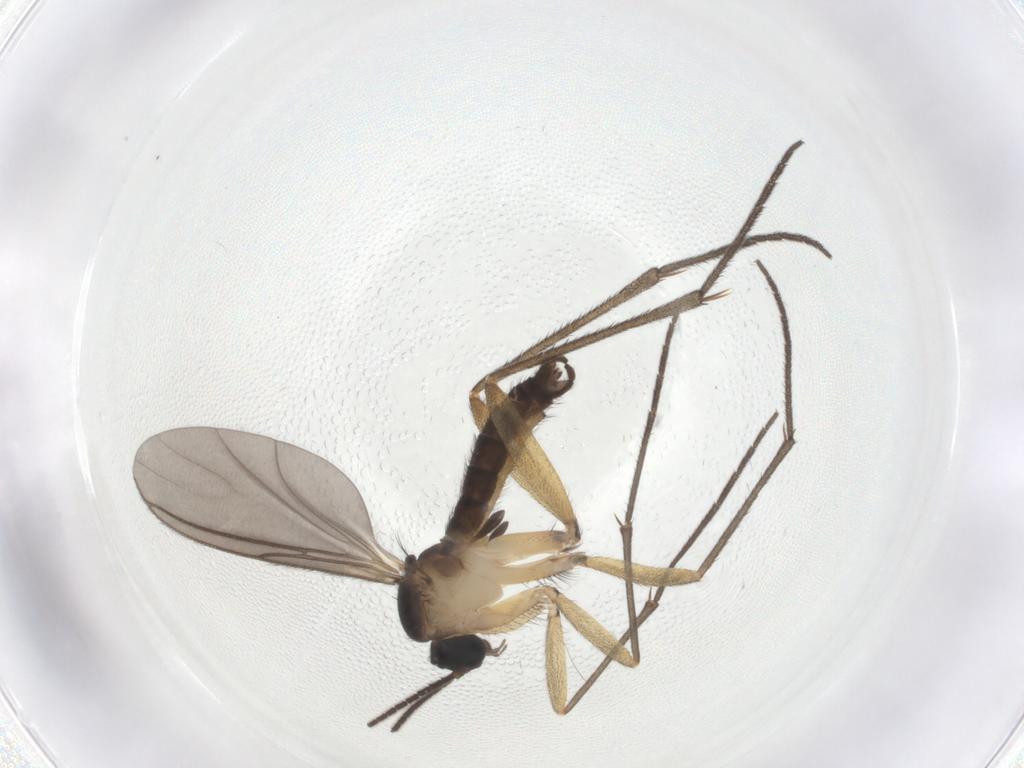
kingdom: Animalia
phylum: Arthropoda
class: Insecta
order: Diptera
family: Sciaridae
